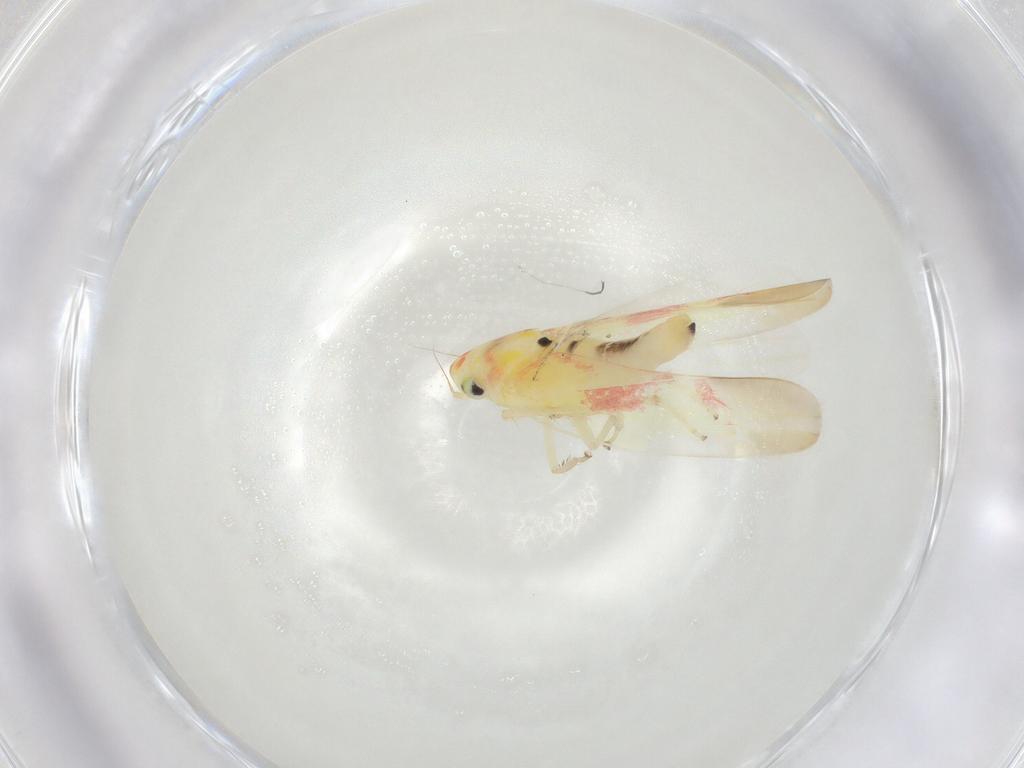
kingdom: Animalia
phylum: Arthropoda
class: Insecta
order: Hemiptera
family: Cicadellidae
